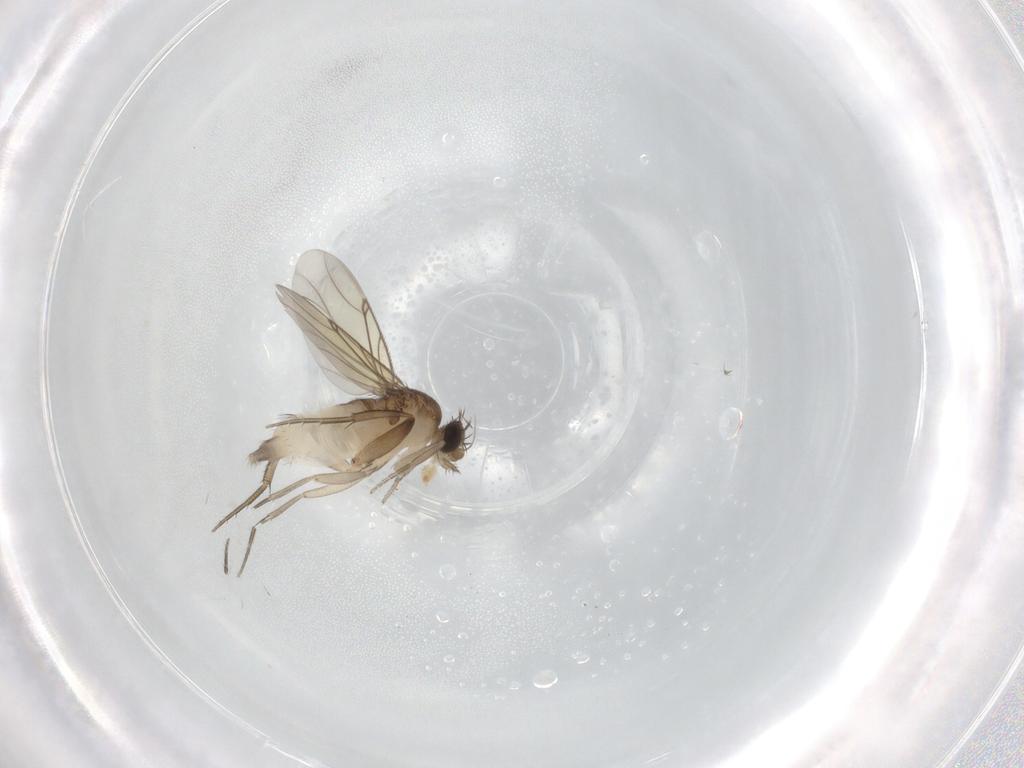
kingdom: Animalia
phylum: Arthropoda
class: Insecta
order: Diptera
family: Phoridae
